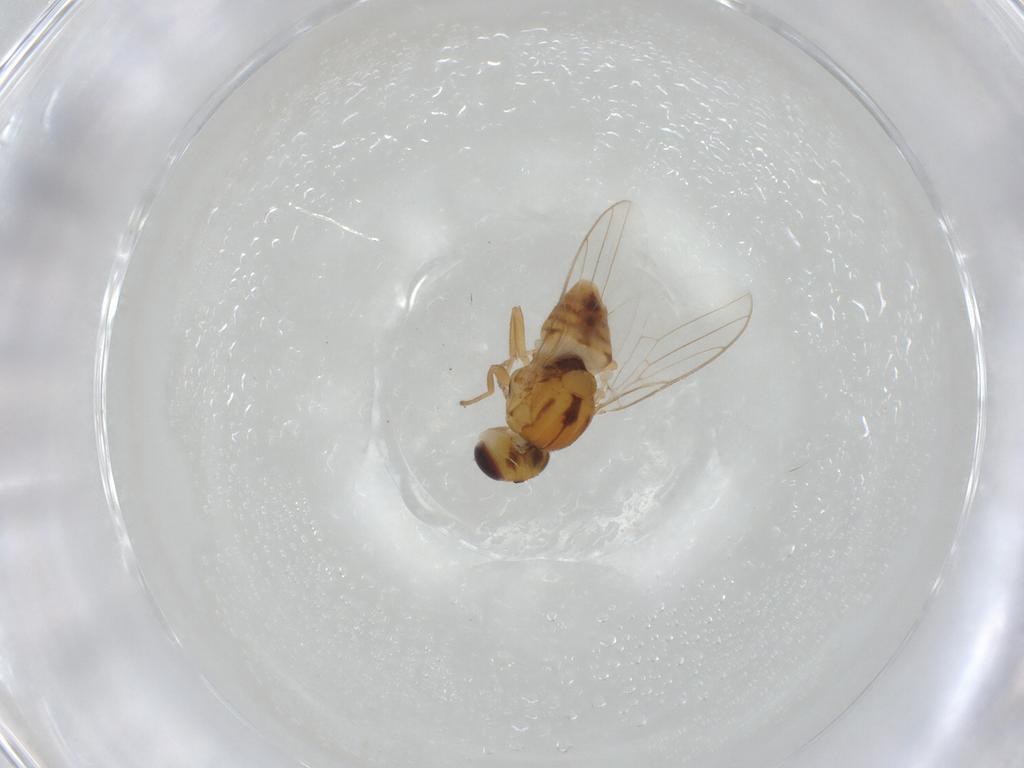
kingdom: Animalia
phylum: Arthropoda
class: Insecta
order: Diptera
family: Chloropidae
